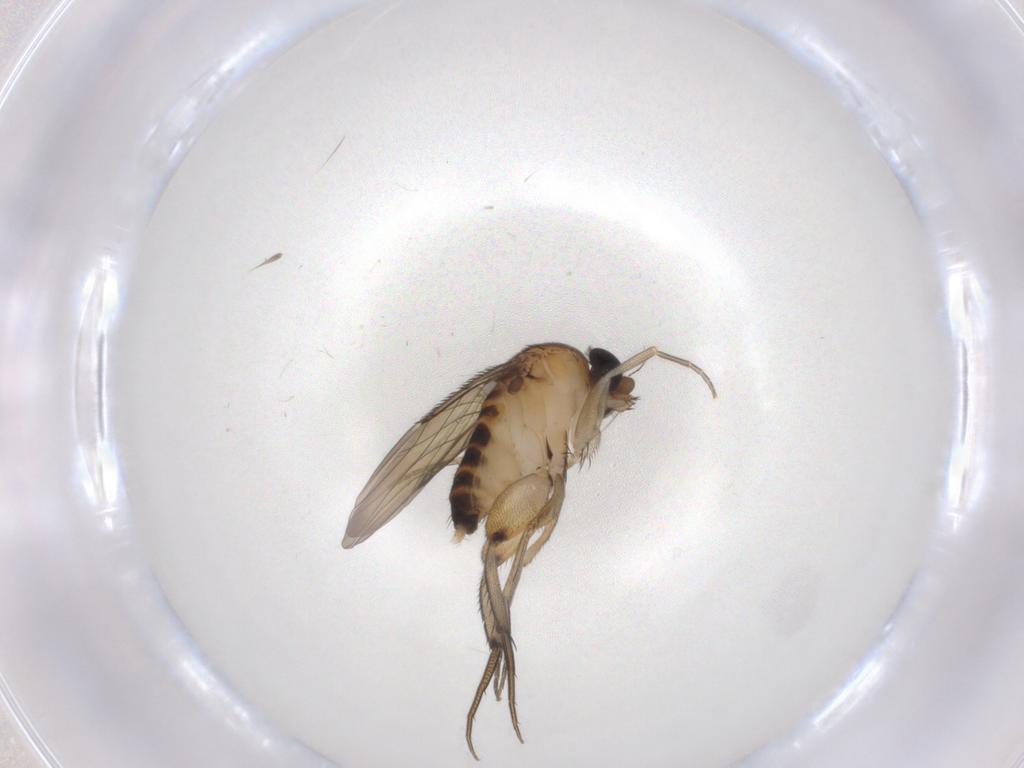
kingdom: Animalia
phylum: Arthropoda
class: Insecta
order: Diptera
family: Phoridae
